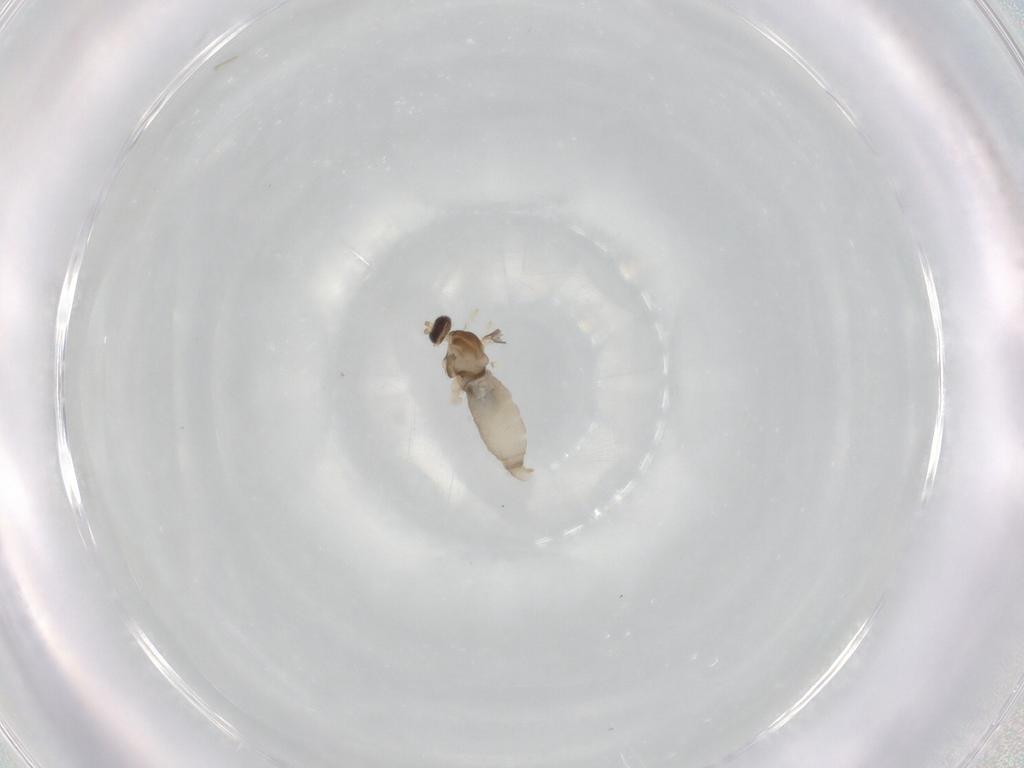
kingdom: Animalia
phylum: Arthropoda
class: Insecta
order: Diptera
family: Cecidomyiidae
